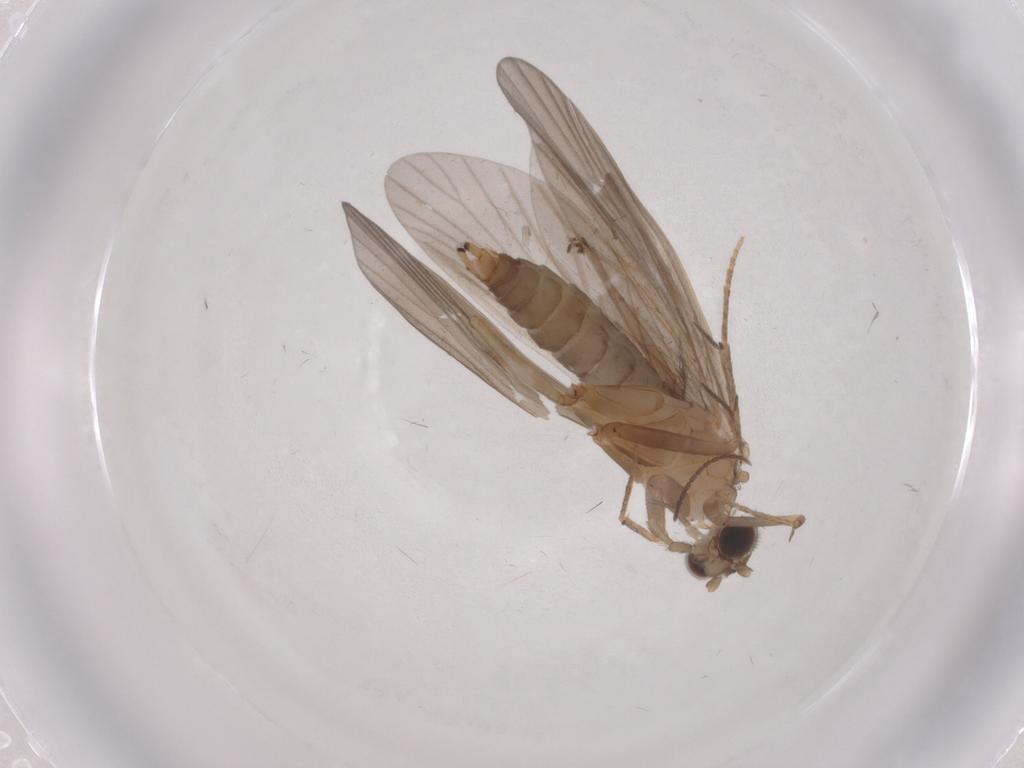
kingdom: Animalia
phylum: Arthropoda
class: Insecta
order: Trichoptera
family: Philopotamidae
